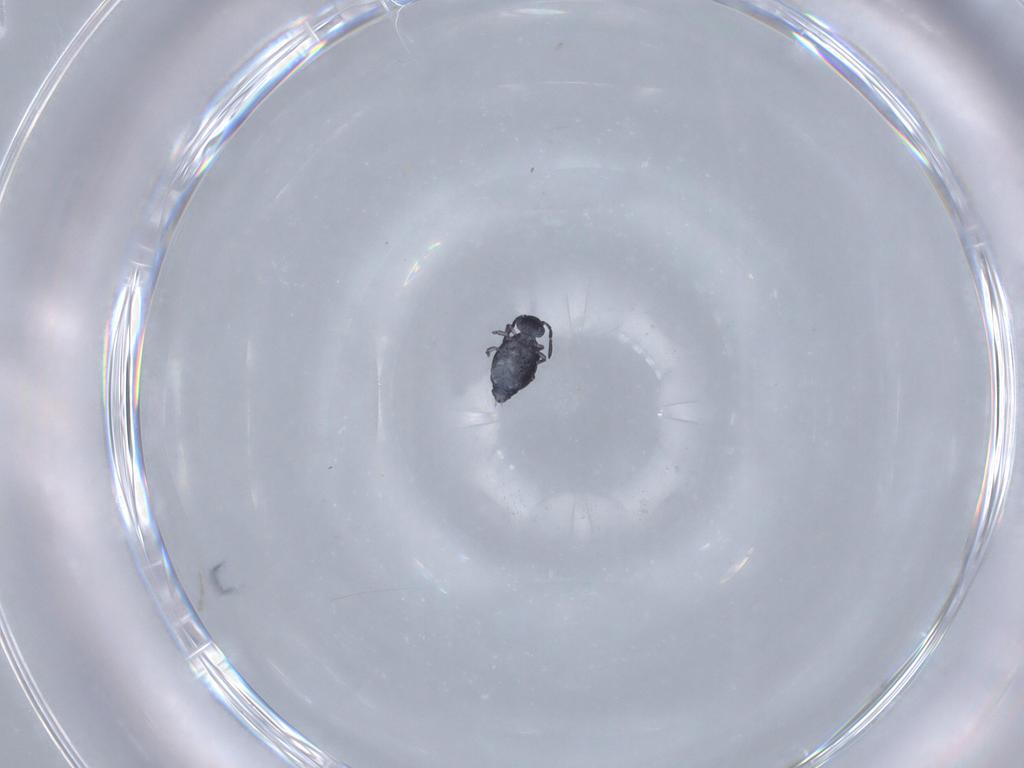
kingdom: Animalia
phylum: Arthropoda
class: Collembola
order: Symphypleona
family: Katiannidae
